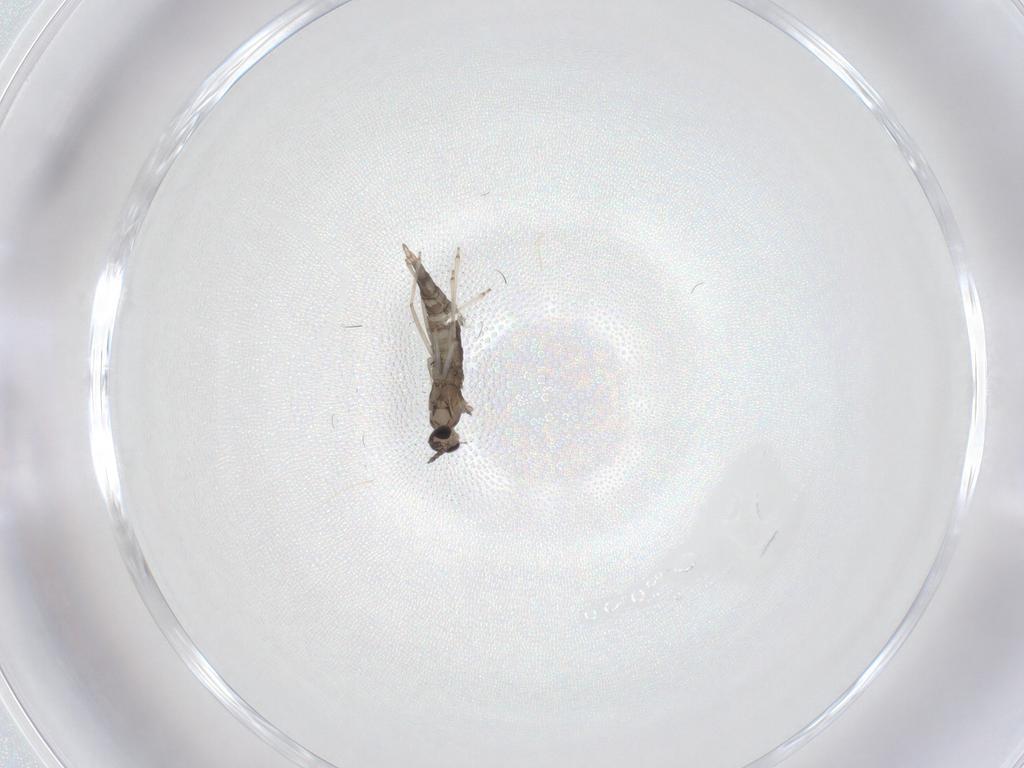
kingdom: Animalia
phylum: Arthropoda
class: Insecta
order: Diptera
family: Cecidomyiidae
